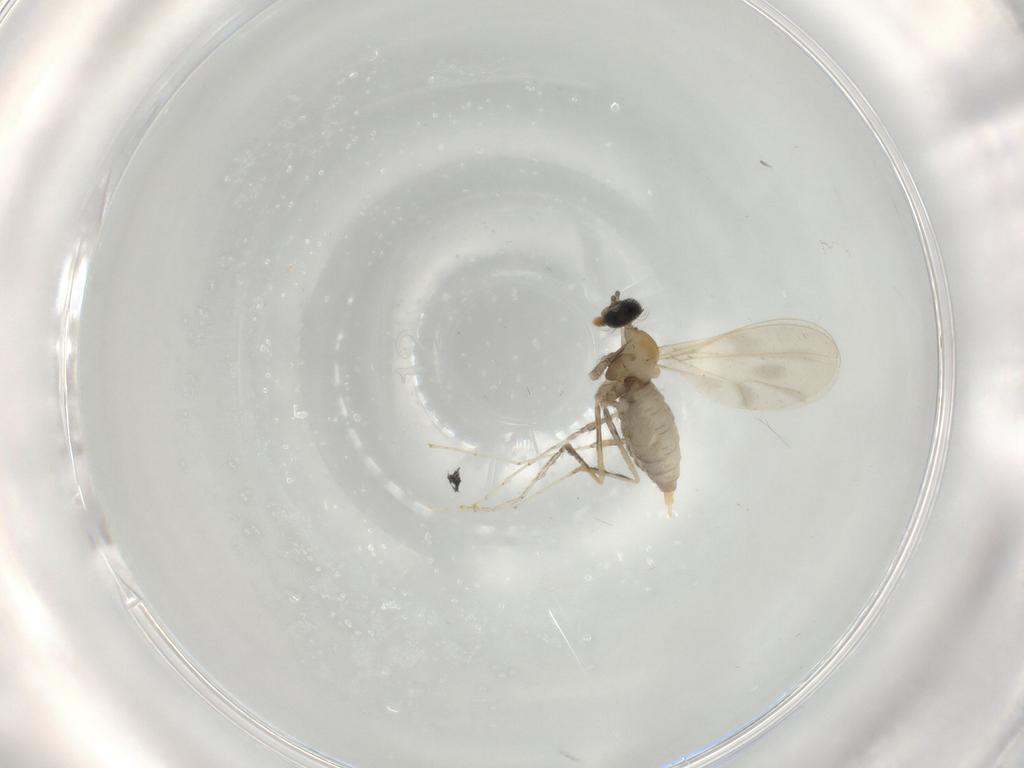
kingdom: Animalia
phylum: Arthropoda
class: Insecta
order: Diptera
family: Cecidomyiidae
